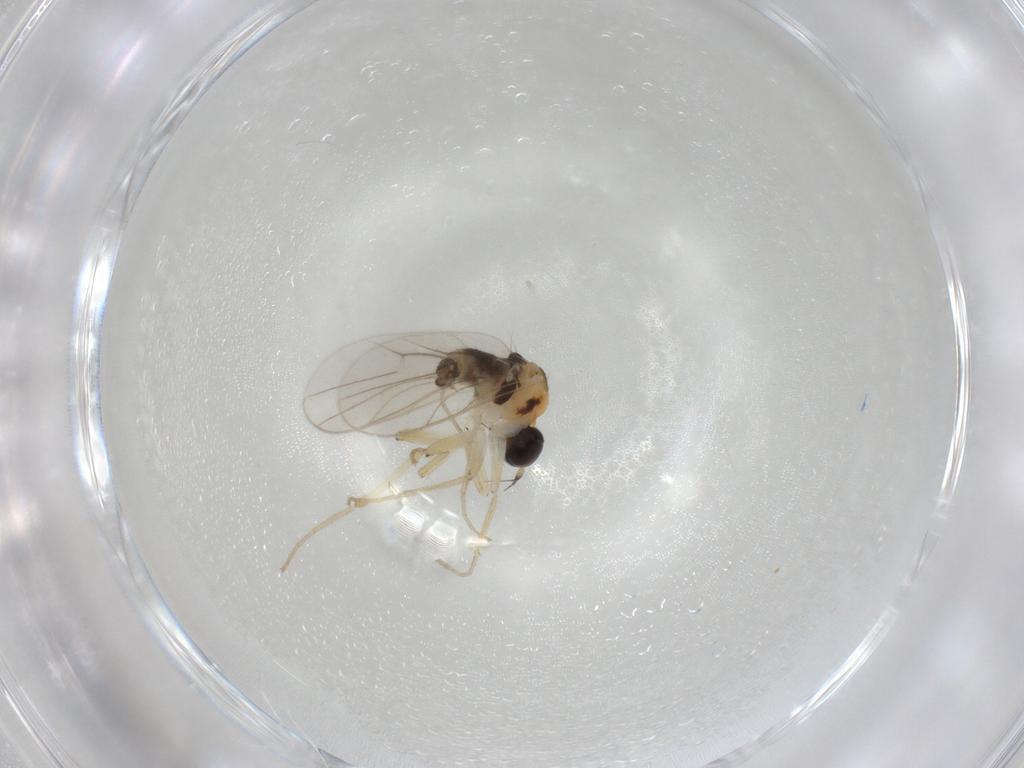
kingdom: Animalia
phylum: Arthropoda
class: Insecta
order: Diptera
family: Hybotidae
